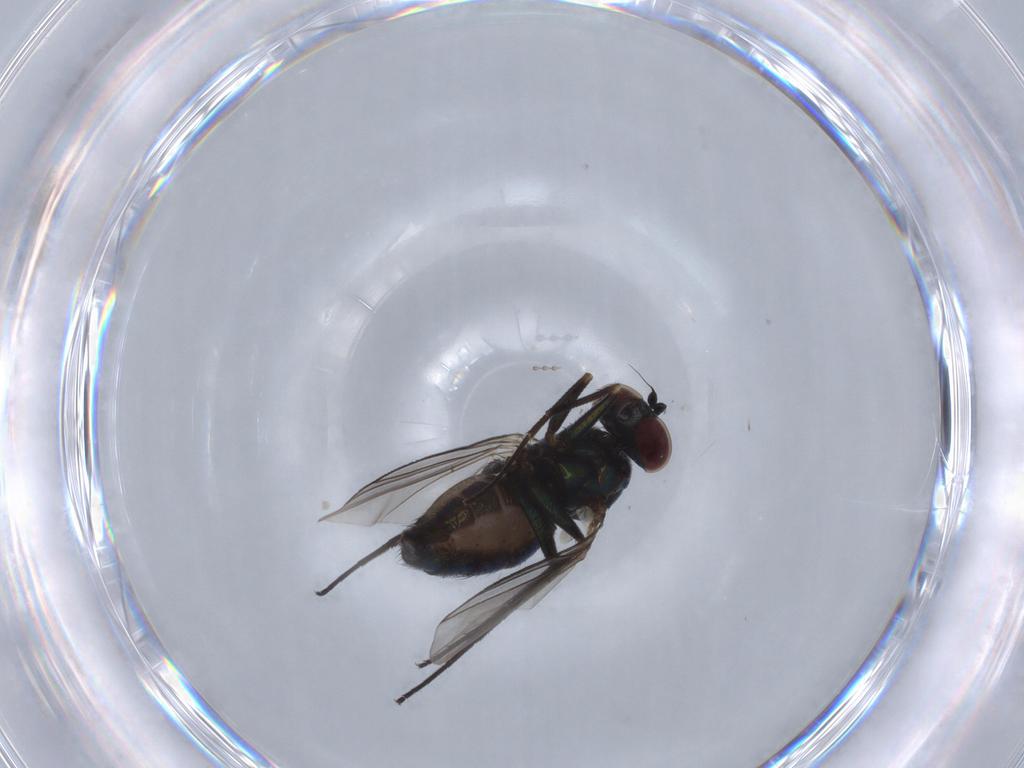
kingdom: Animalia
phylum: Arthropoda
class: Insecta
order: Diptera
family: Dolichopodidae
